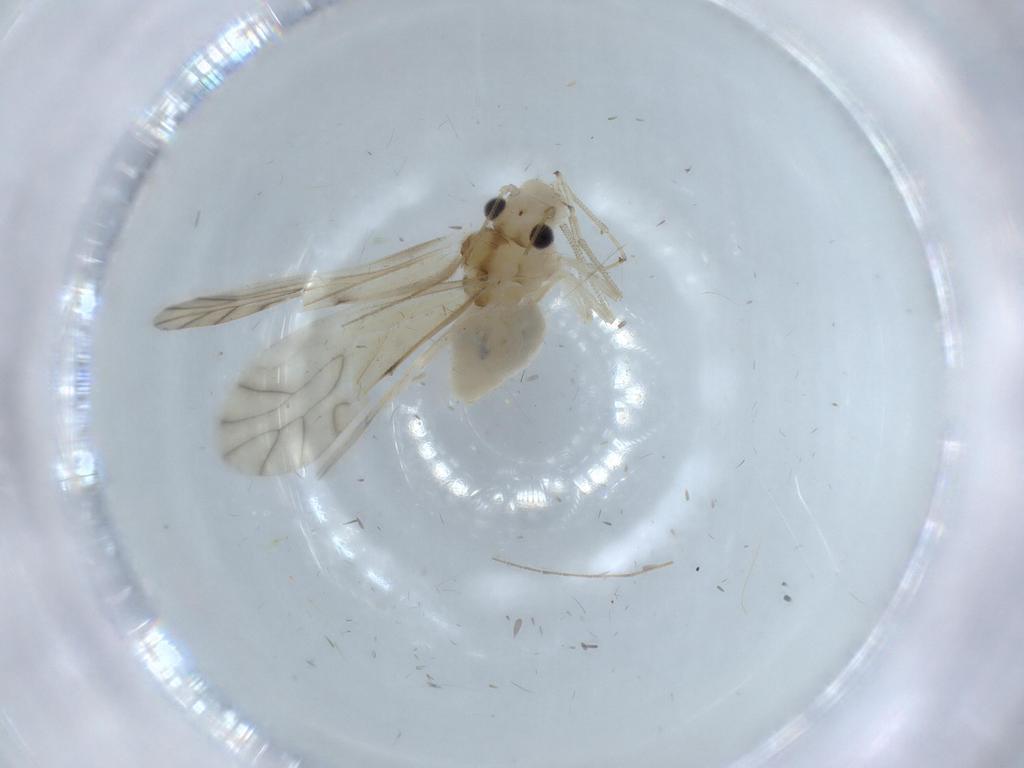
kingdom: Animalia
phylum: Arthropoda
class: Insecta
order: Psocodea
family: Caeciliusidae
